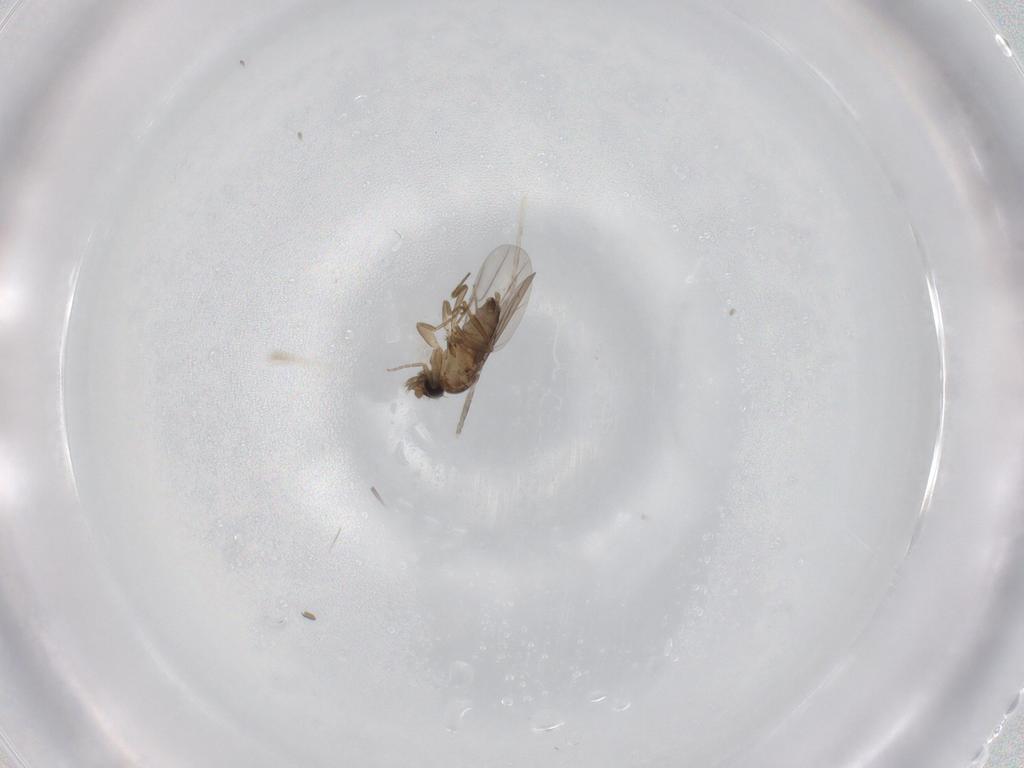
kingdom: Animalia
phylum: Arthropoda
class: Insecta
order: Diptera
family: Phoridae
